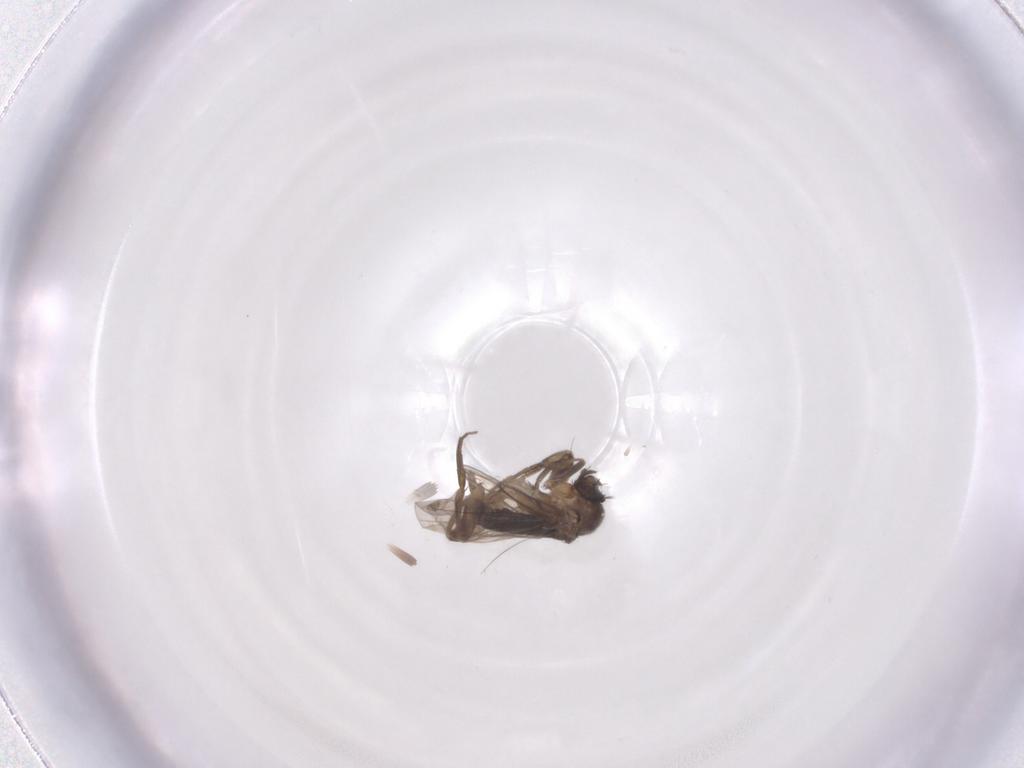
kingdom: Animalia
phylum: Arthropoda
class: Insecta
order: Diptera
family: Phoridae
